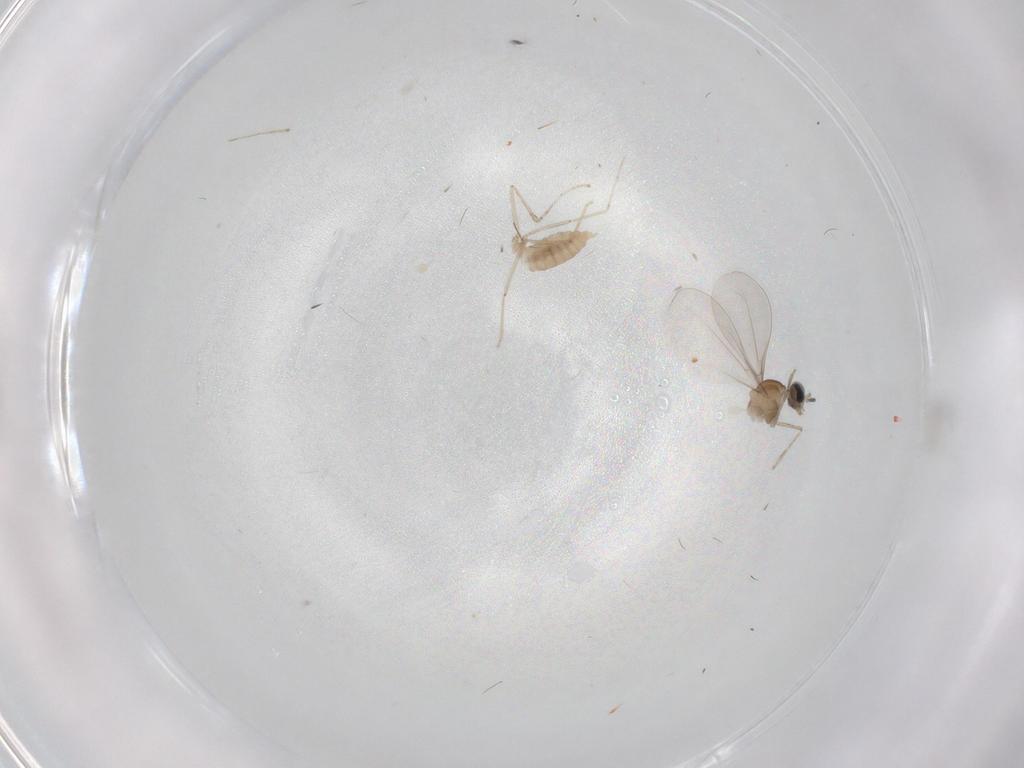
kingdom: Animalia
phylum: Arthropoda
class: Insecta
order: Diptera
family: Cecidomyiidae
